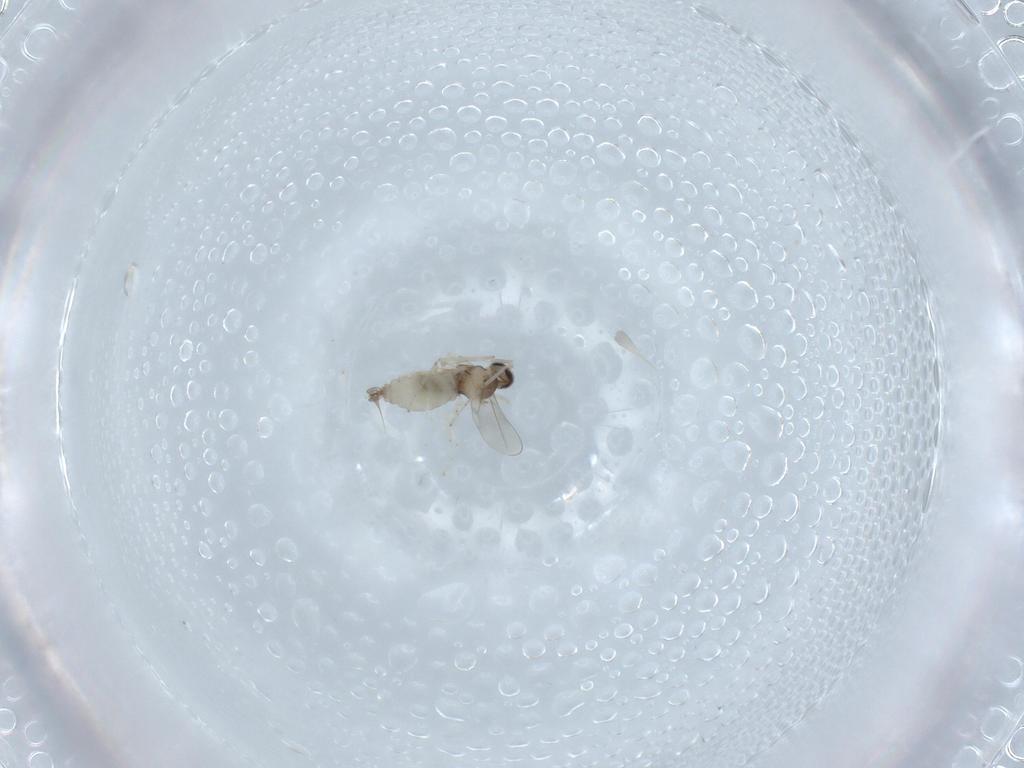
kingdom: Animalia
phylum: Arthropoda
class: Insecta
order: Diptera
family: Cecidomyiidae
